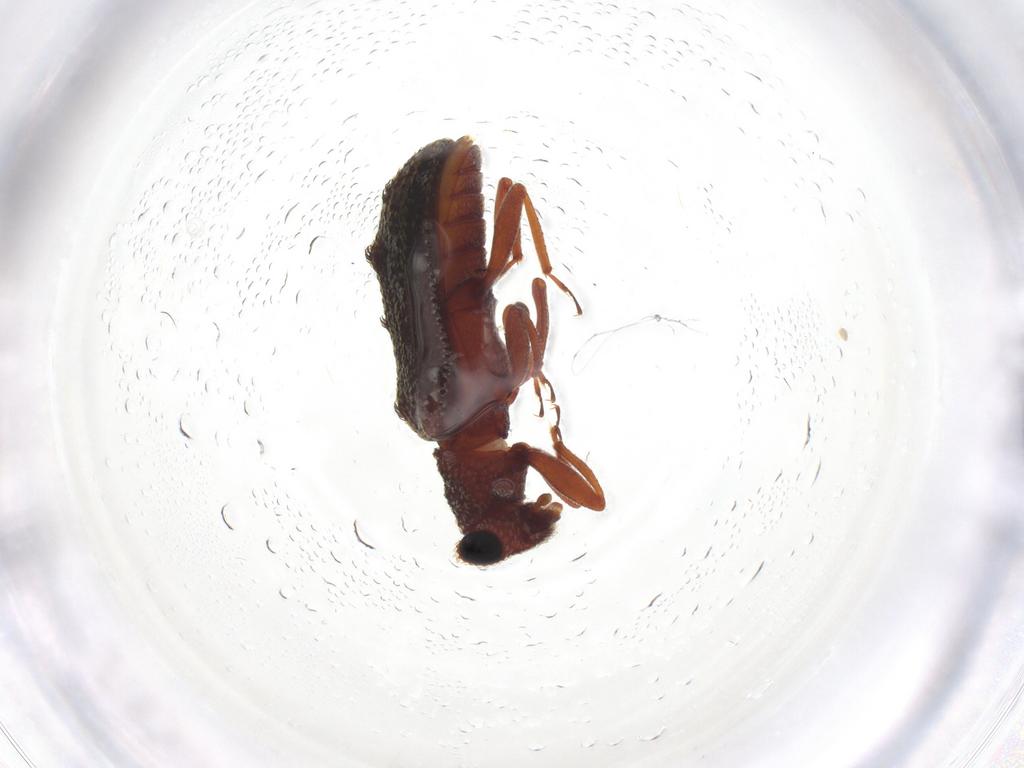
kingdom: Animalia
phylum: Arthropoda
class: Insecta
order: Coleoptera
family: Zopheridae
